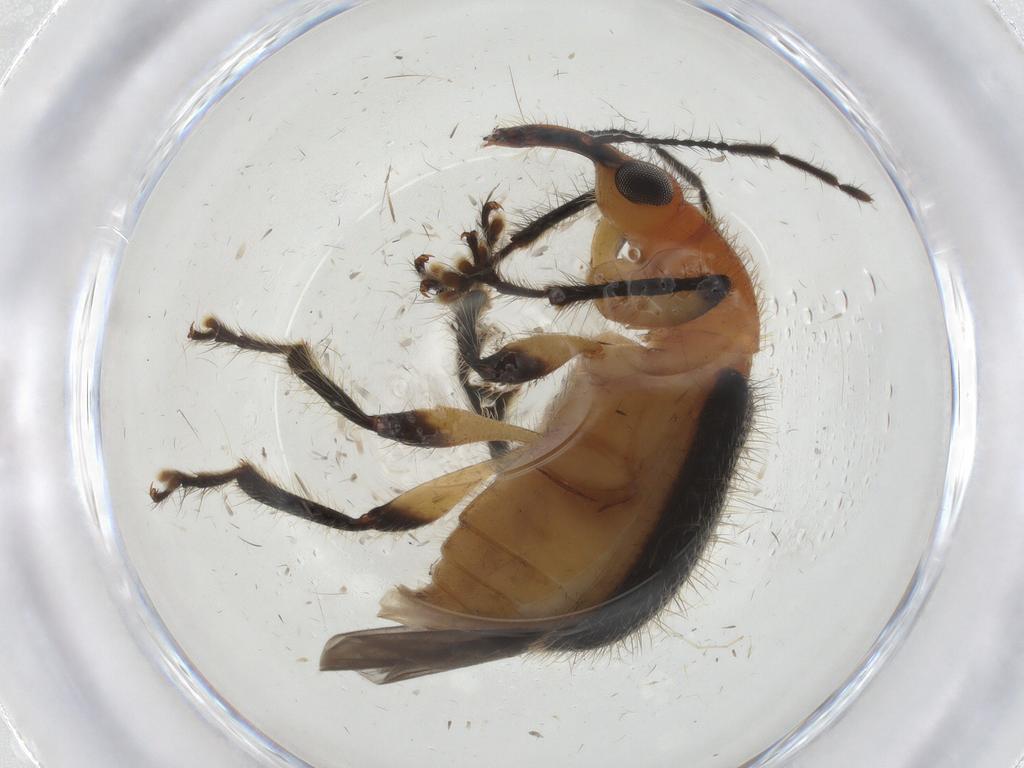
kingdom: Animalia
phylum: Arthropoda
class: Insecta
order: Coleoptera
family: Attelabidae
